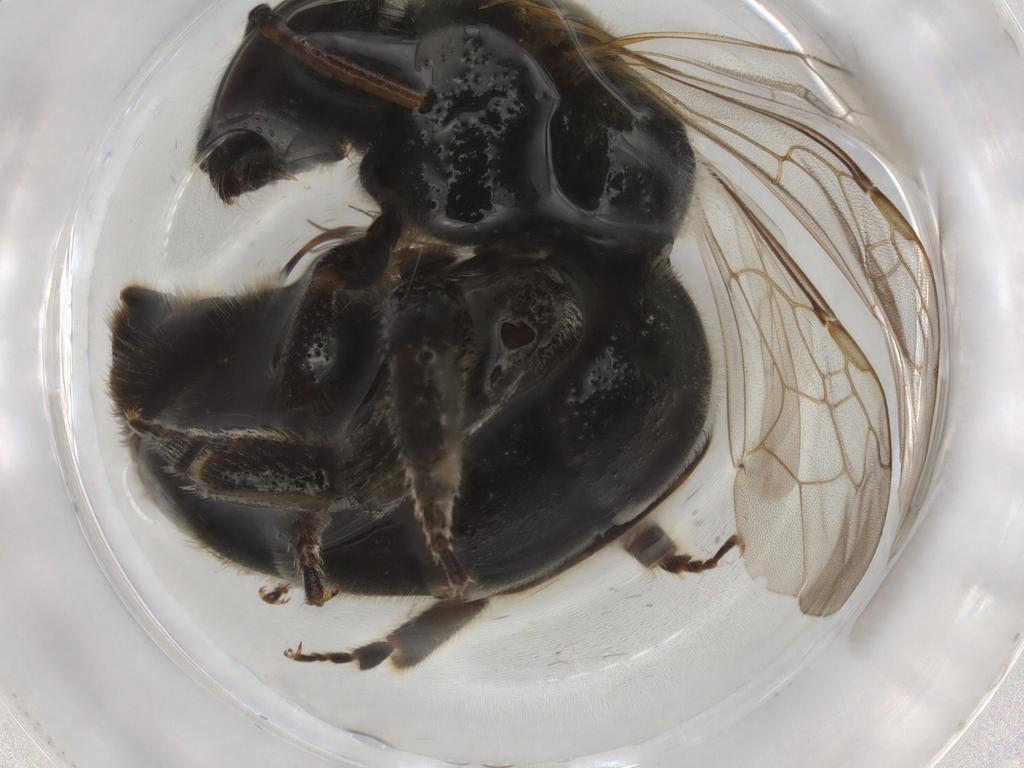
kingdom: Animalia
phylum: Arthropoda
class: Insecta
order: Hymenoptera
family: Vespidae
